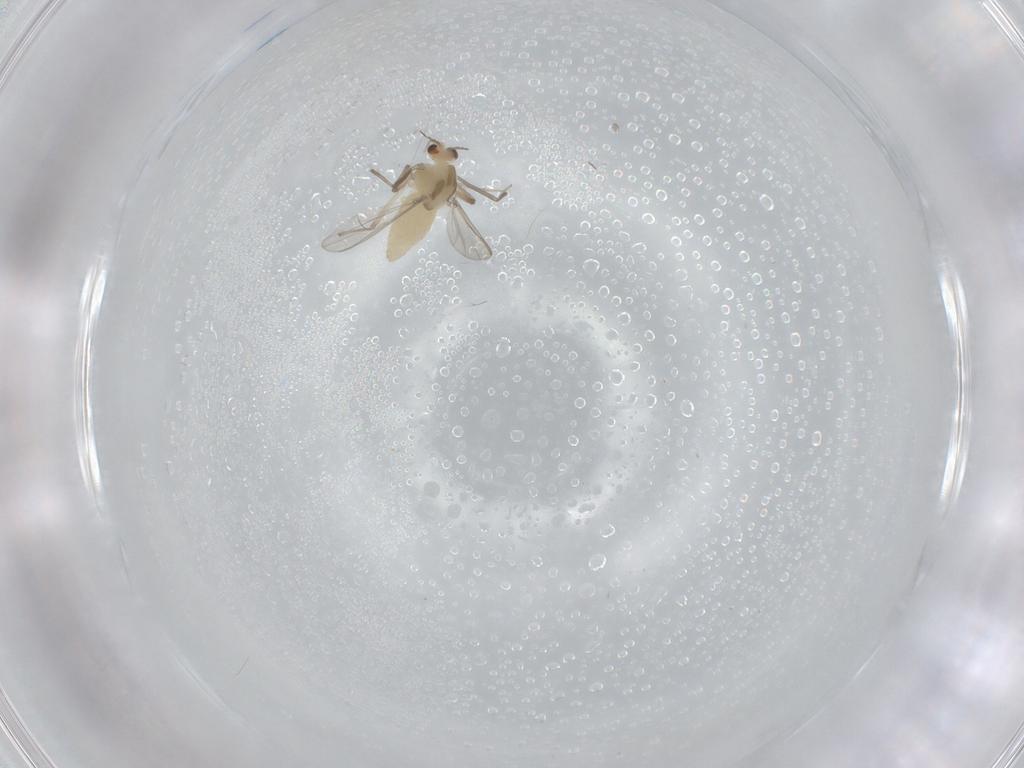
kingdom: Animalia
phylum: Arthropoda
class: Insecta
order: Diptera
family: Chironomidae
